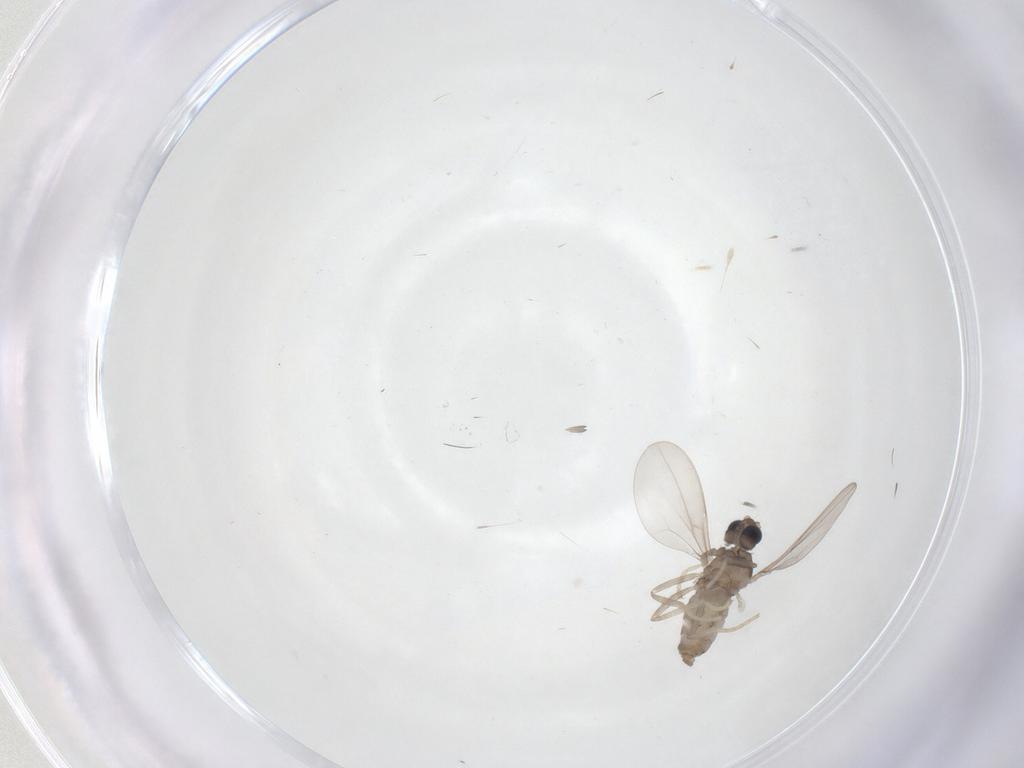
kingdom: Animalia
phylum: Arthropoda
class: Insecta
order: Diptera
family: Cecidomyiidae
